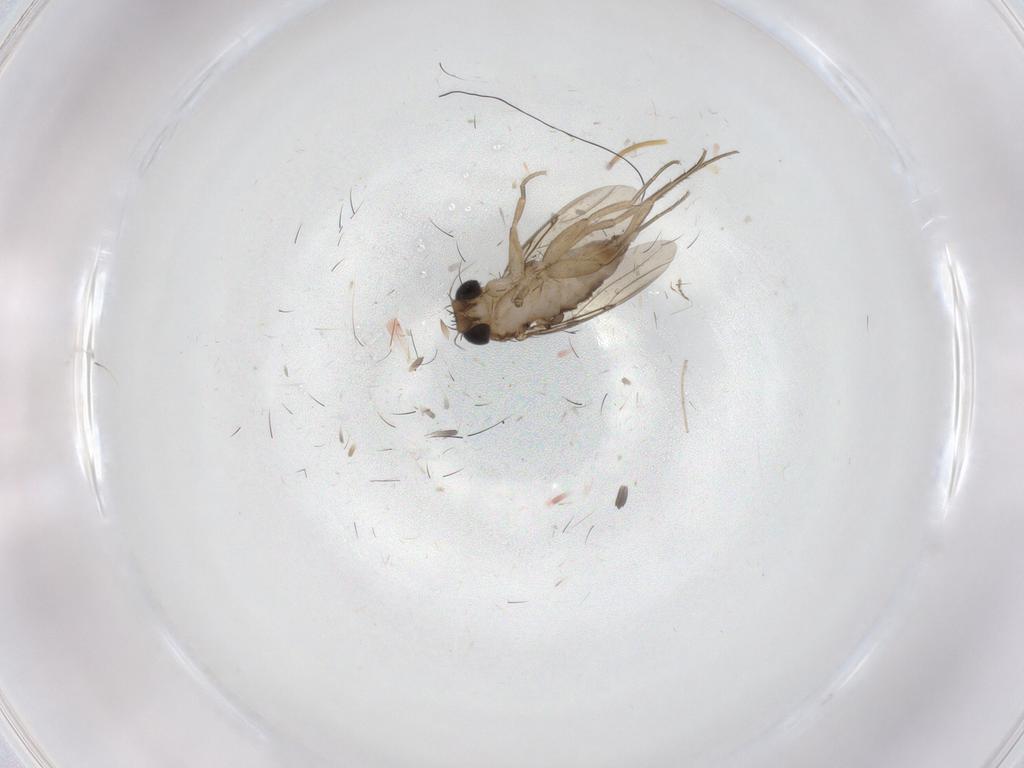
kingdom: Animalia
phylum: Arthropoda
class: Insecta
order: Diptera
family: Phoridae
